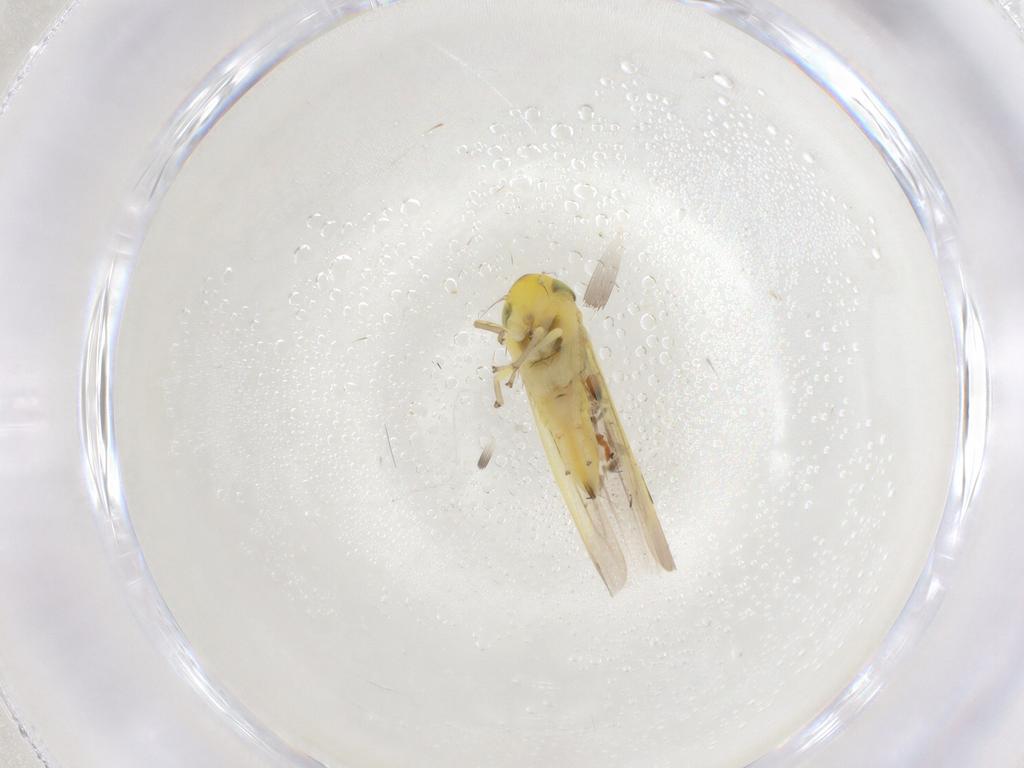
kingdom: Animalia
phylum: Arthropoda
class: Insecta
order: Hemiptera
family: Cicadellidae
